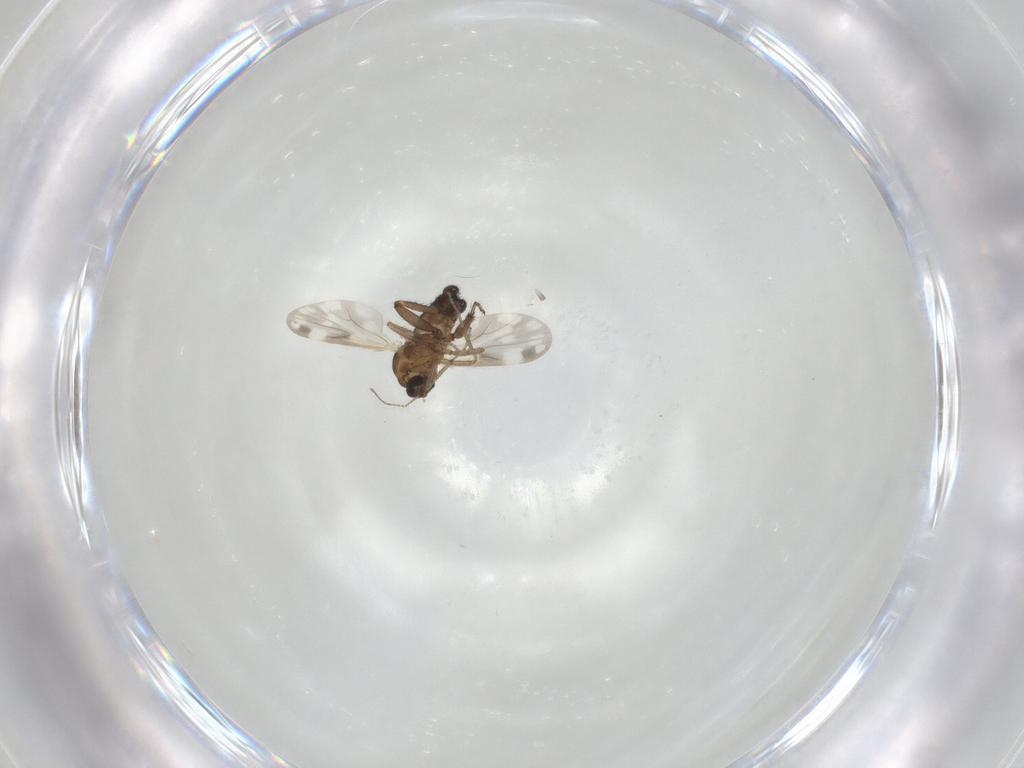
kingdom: Animalia
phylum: Arthropoda
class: Insecta
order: Diptera
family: Ceratopogonidae
